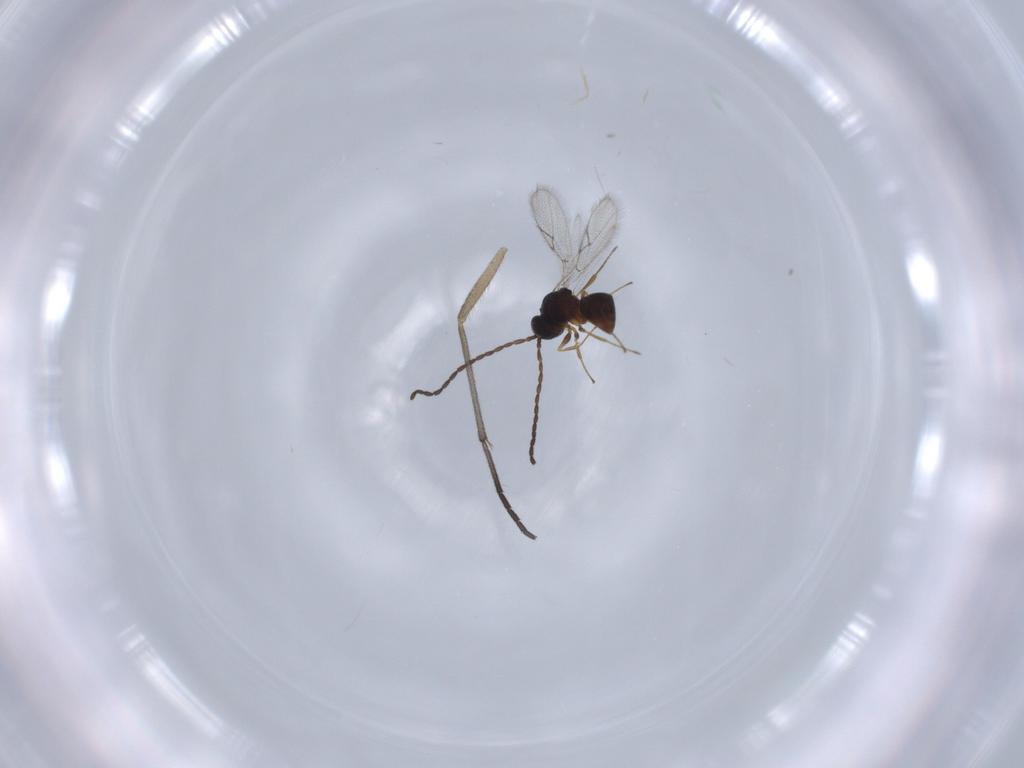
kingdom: Animalia
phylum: Arthropoda
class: Insecta
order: Hymenoptera
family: Figitidae
